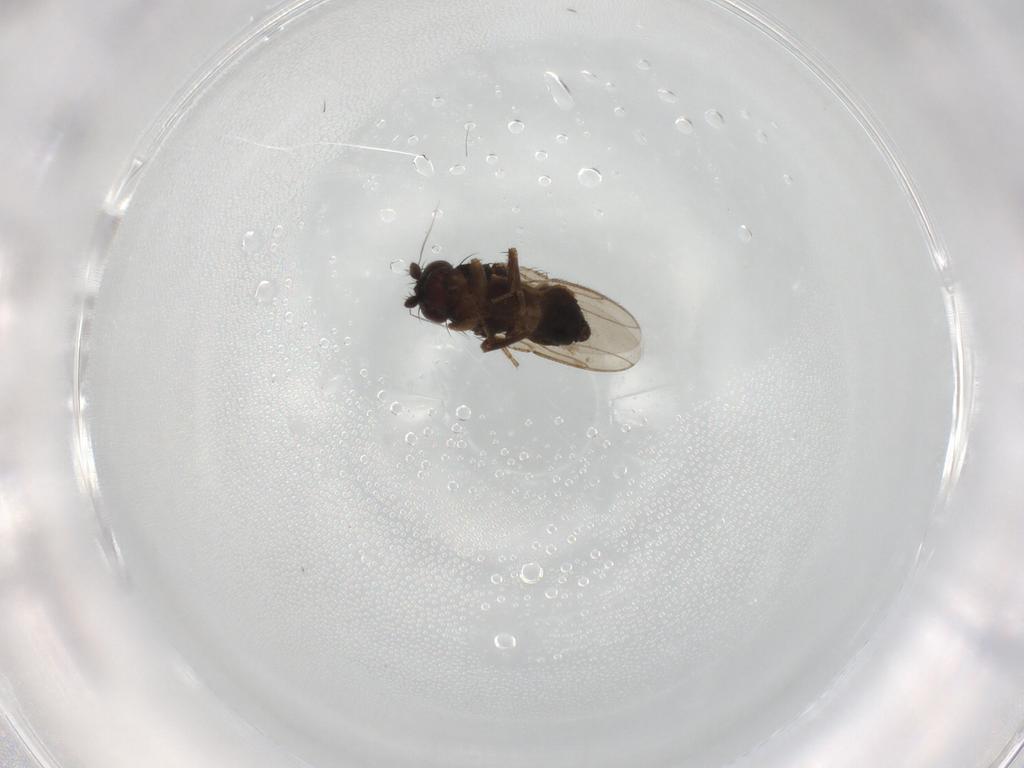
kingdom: Animalia
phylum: Arthropoda
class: Insecta
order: Diptera
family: Sphaeroceridae
